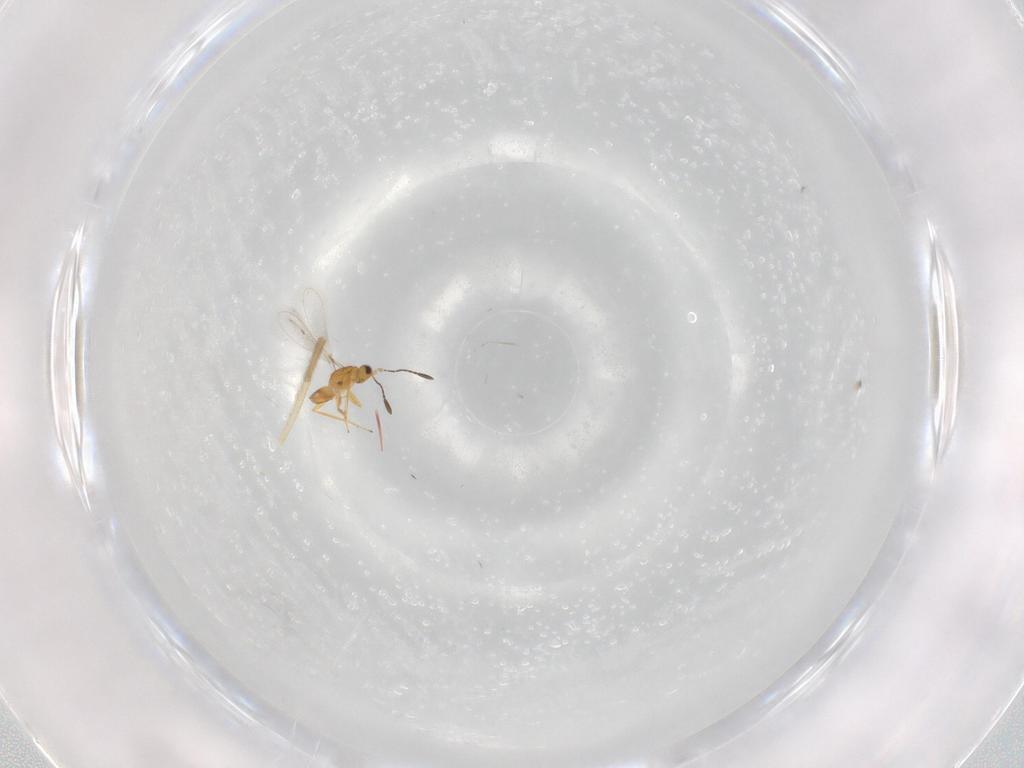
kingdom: Animalia
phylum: Arthropoda
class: Insecta
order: Hymenoptera
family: Mymaridae
